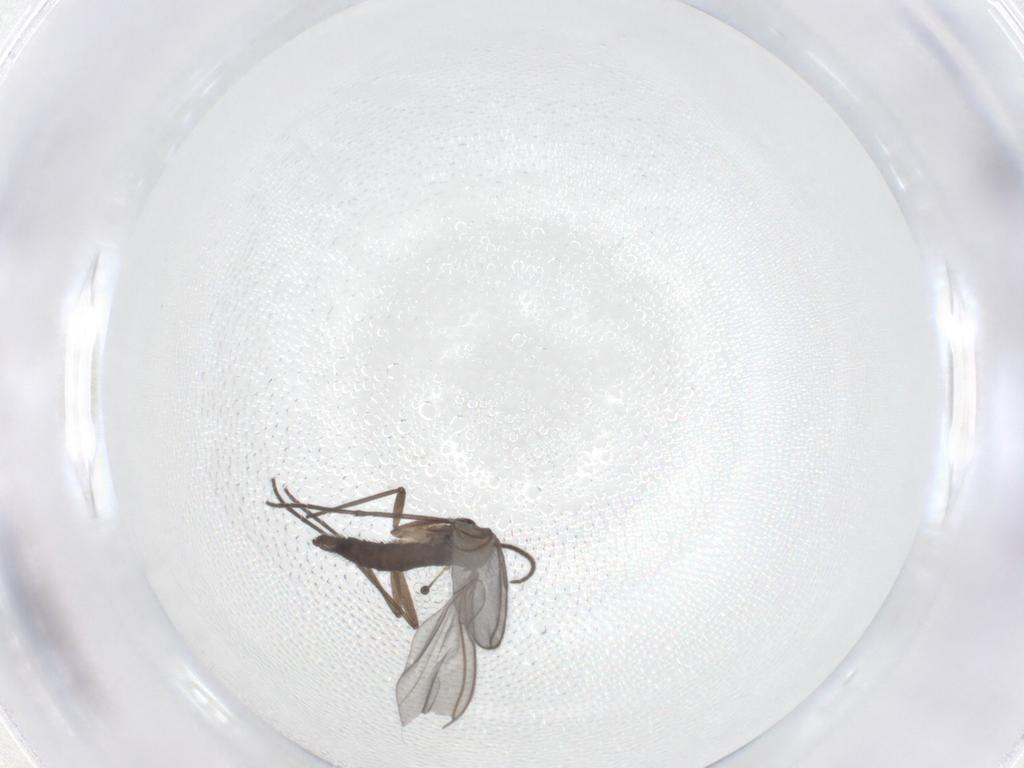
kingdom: Animalia
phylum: Arthropoda
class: Insecta
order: Diptera
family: Sciaridae
